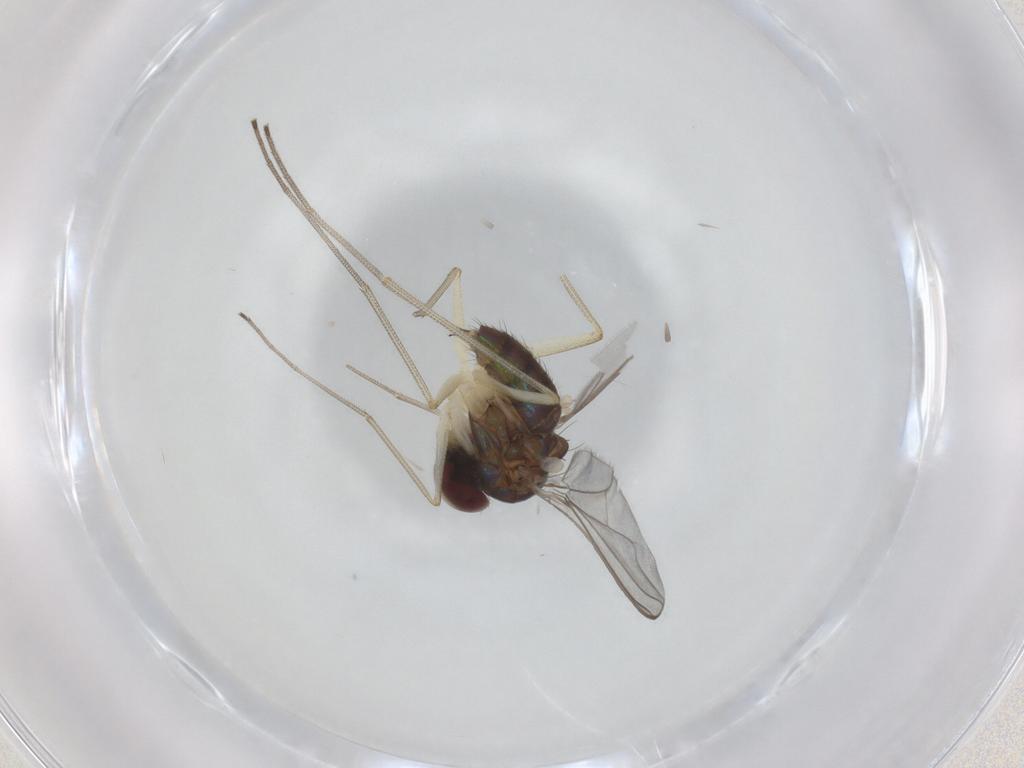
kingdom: Animalia
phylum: Arthropoda
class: Insecta
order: Diptera
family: Dolichopodidae
